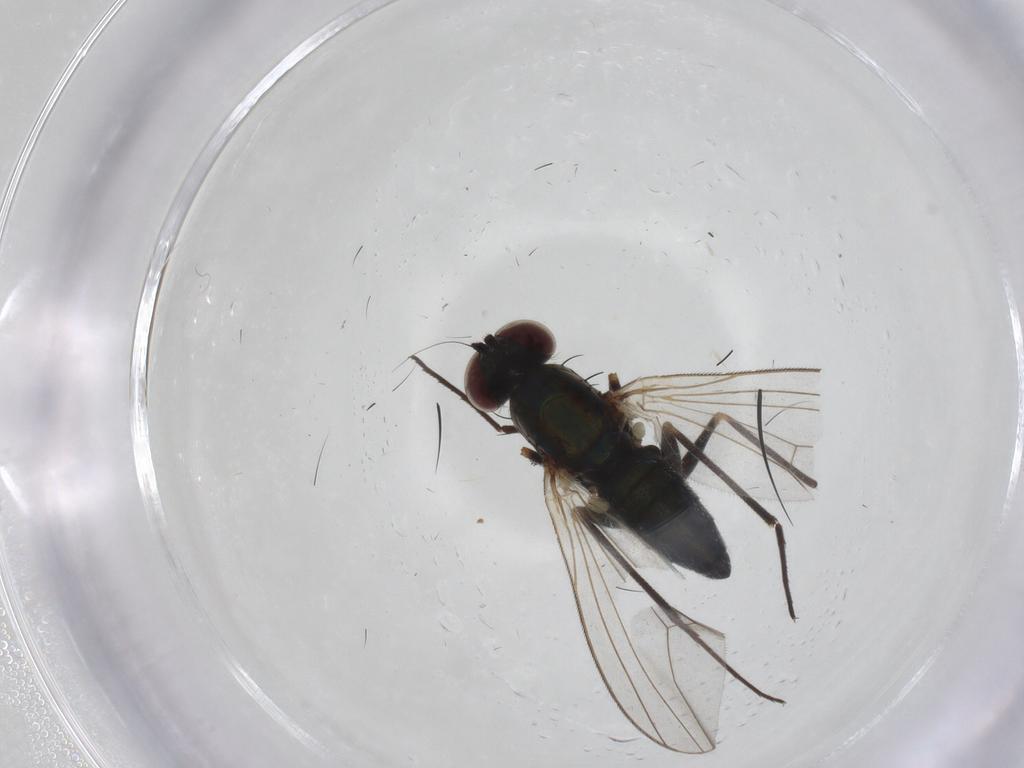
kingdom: Animalia
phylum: Arthropoda
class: Insecta
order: Diptera
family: Dolichopodidae
